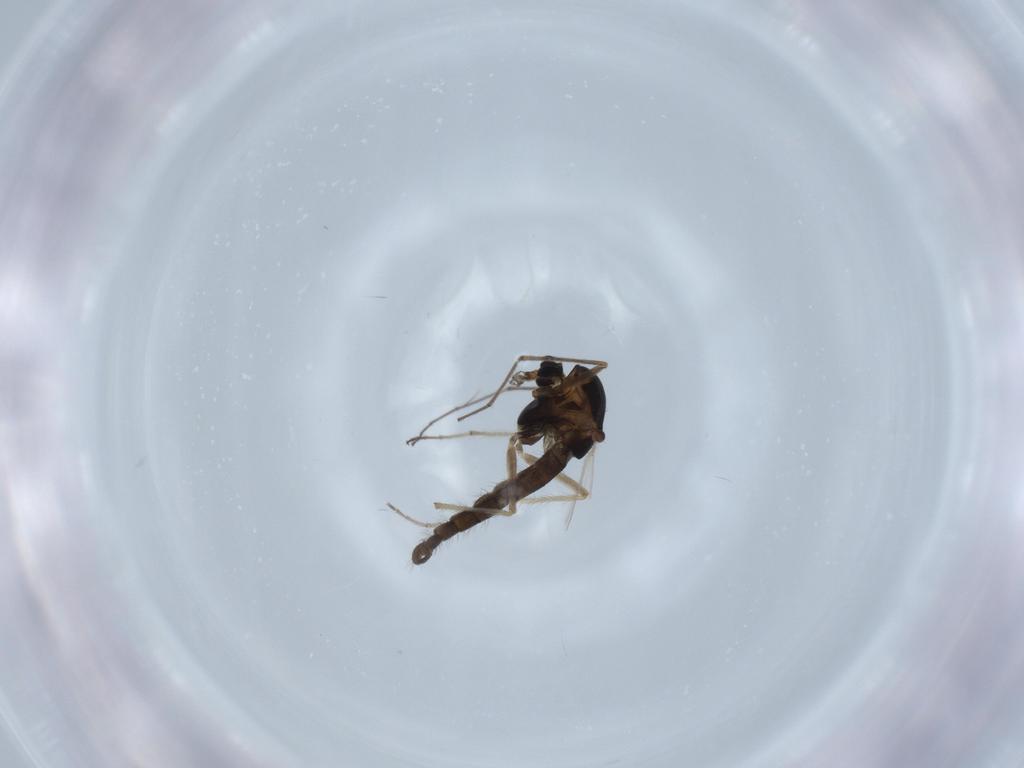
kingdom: Animalia
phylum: Arthropoda
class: Insecta
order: Diptera
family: Chironomidae
